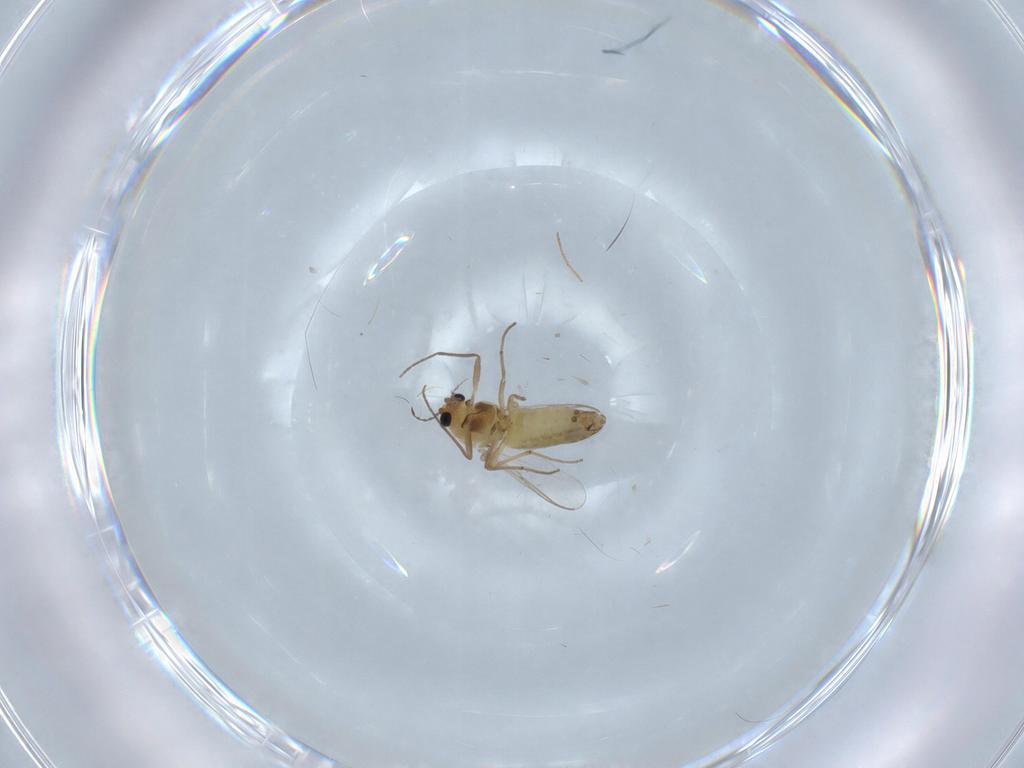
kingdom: Animalia
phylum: Arthropoda
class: Insecta
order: Diptera
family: Chironomidae
